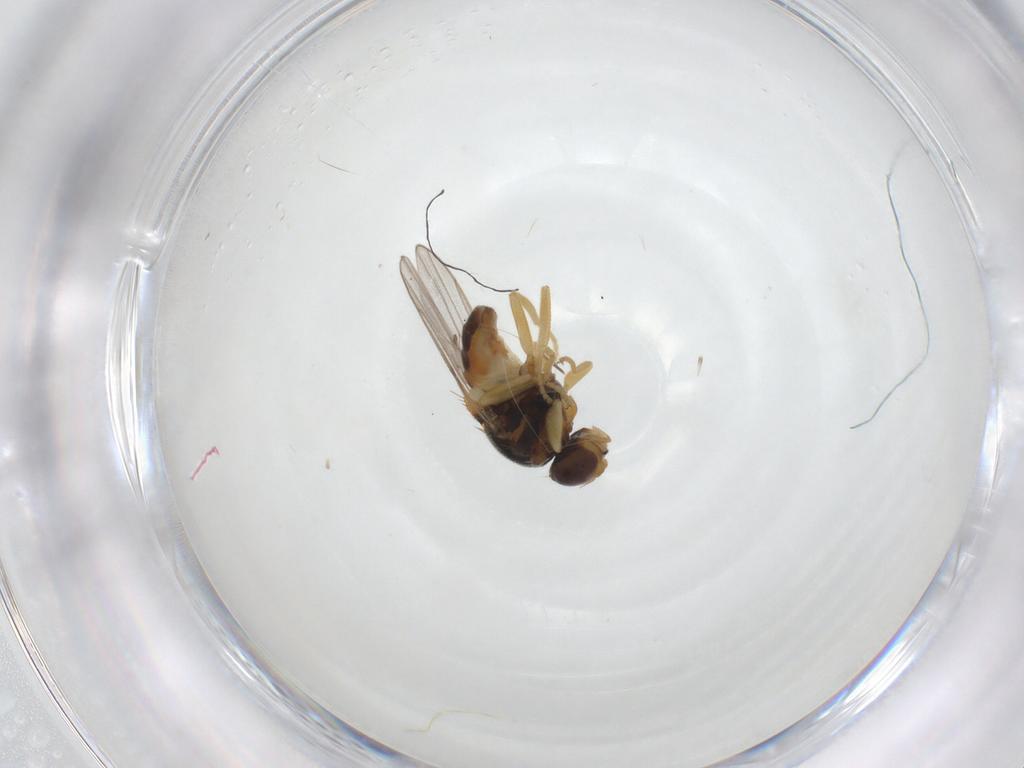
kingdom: Animalia
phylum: Arthropoda
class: Insecta
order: Diptera
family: Chloropidae
